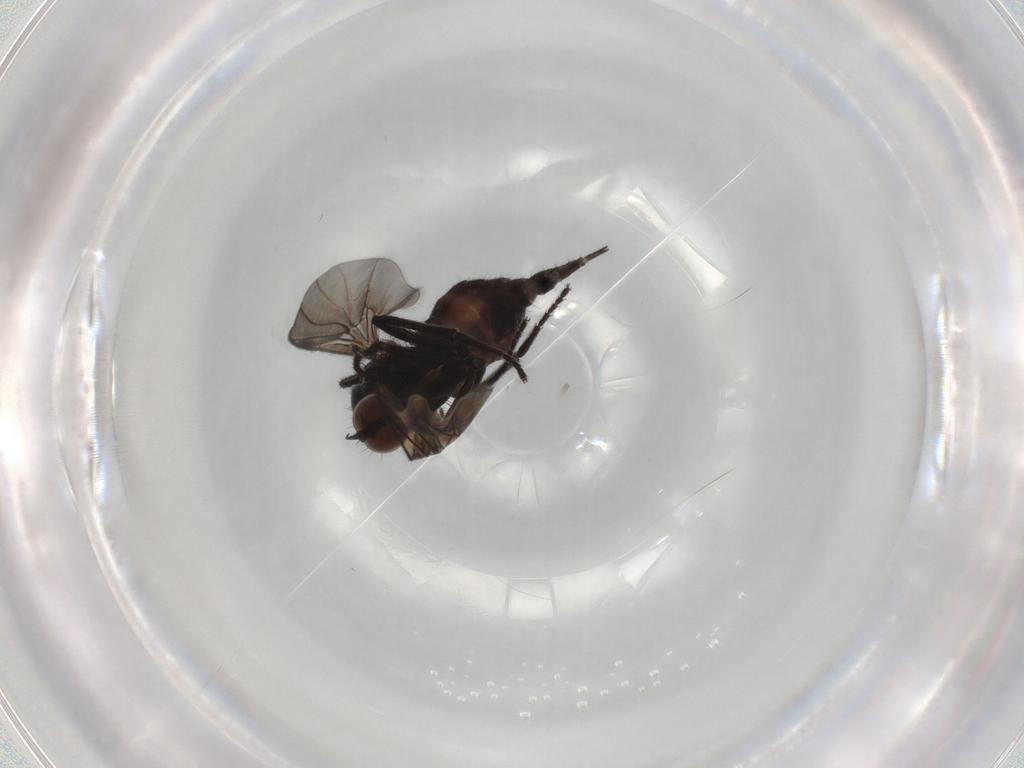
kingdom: Animalia
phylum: Arthropoda
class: Insecta
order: Diptera
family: Empididae
